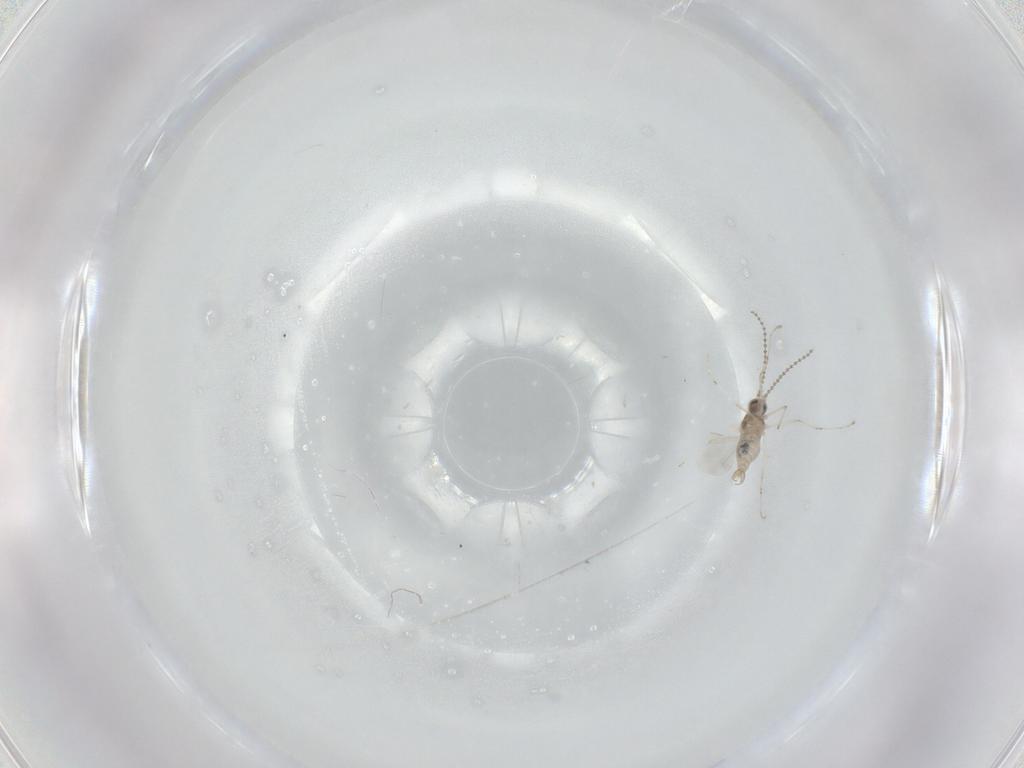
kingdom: Animalia
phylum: Arthropoda
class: Insecta
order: Diptera
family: Cecidomyiidae
